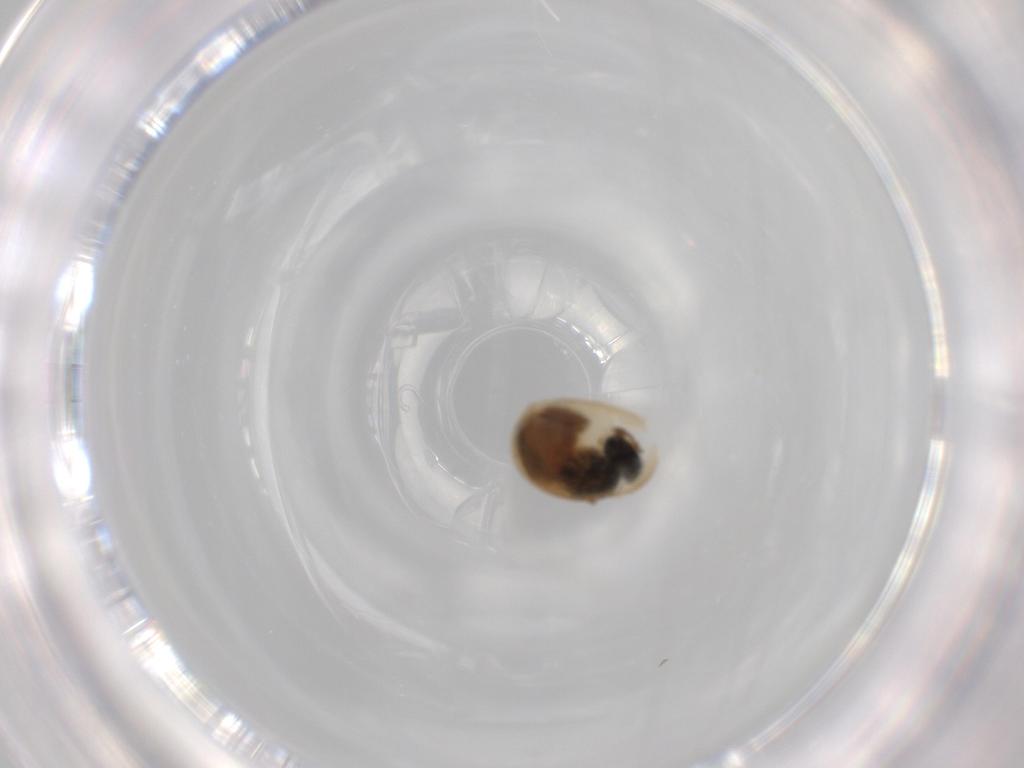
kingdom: Animalia
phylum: Arthropoda
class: Insecta
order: Hymenoptera
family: Scelionidae
